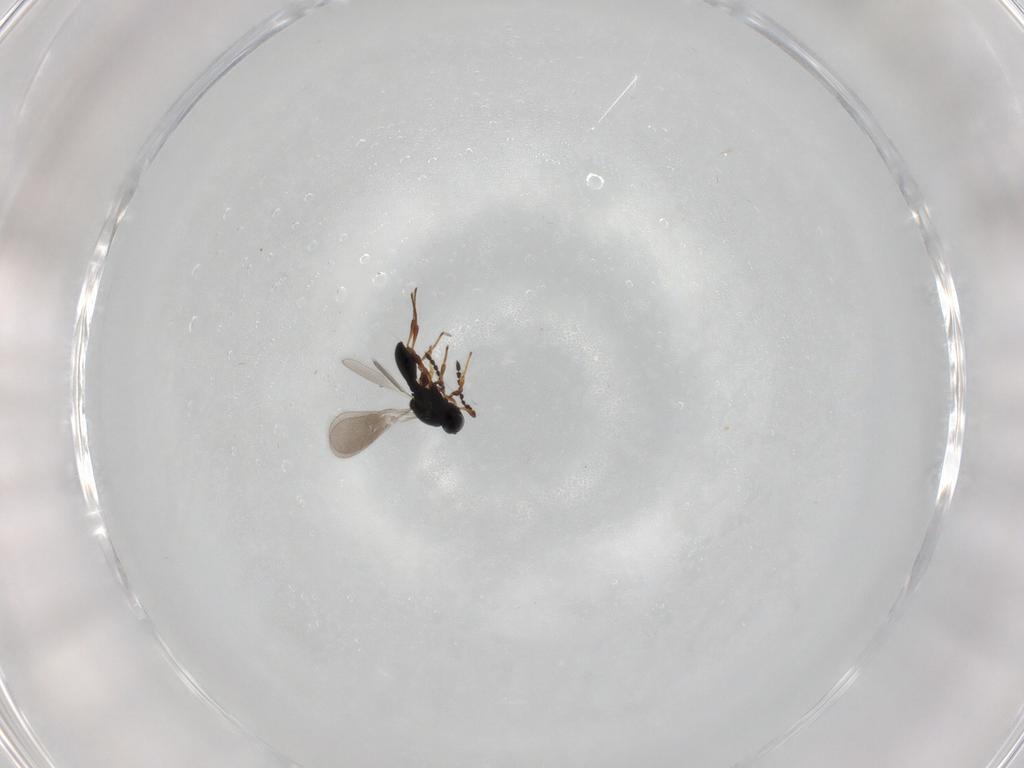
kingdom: Animalia
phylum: Arthropoda
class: Insecta
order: Hymenoptera
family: Platygastridae
